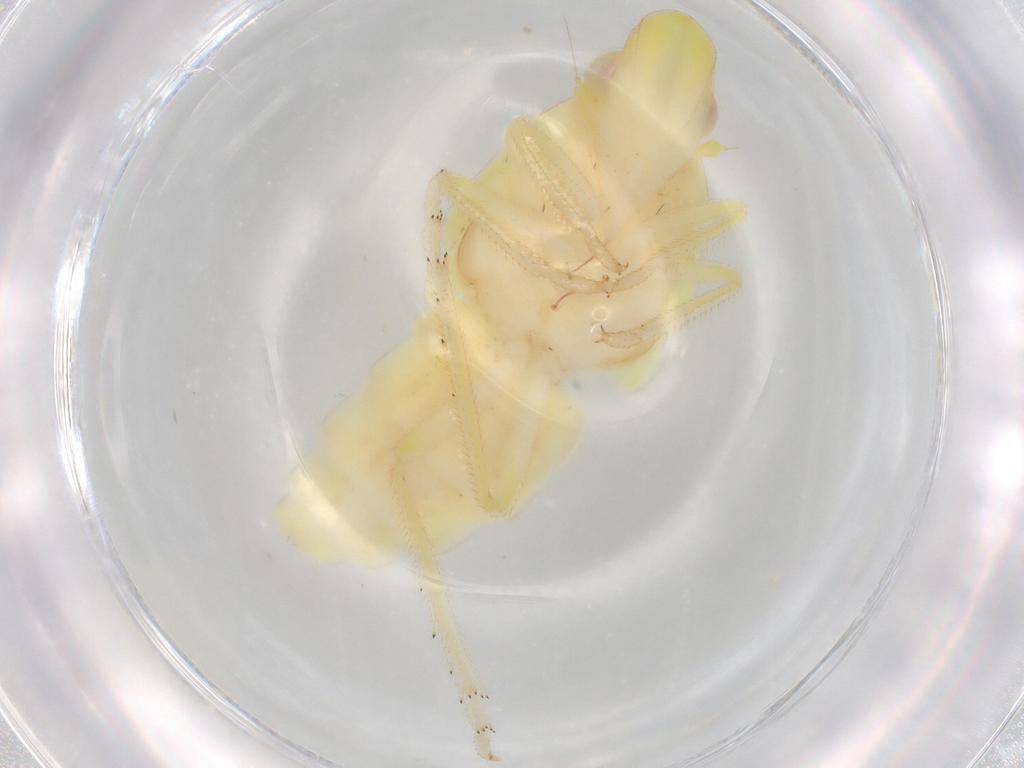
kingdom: Animalia
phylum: Arthropoda
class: Insecta
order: Hemiptera
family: Tropiduchidae
